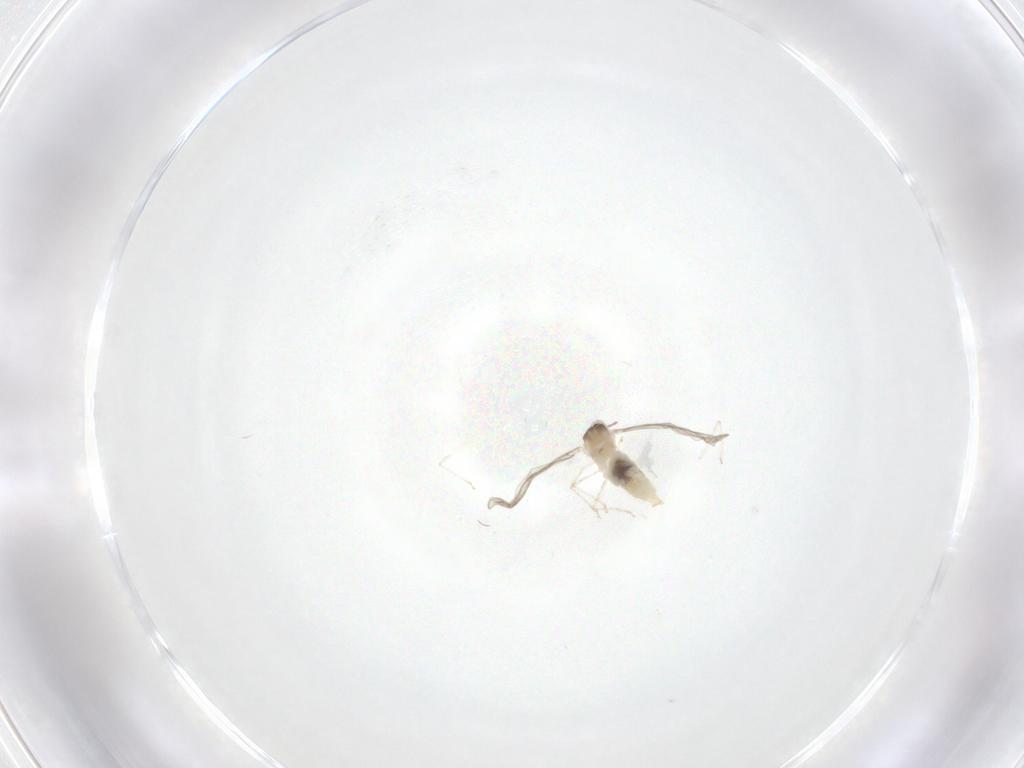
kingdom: Animalia
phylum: Arthropoda
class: Insecta
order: Diptera
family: Cecidomyiidae
